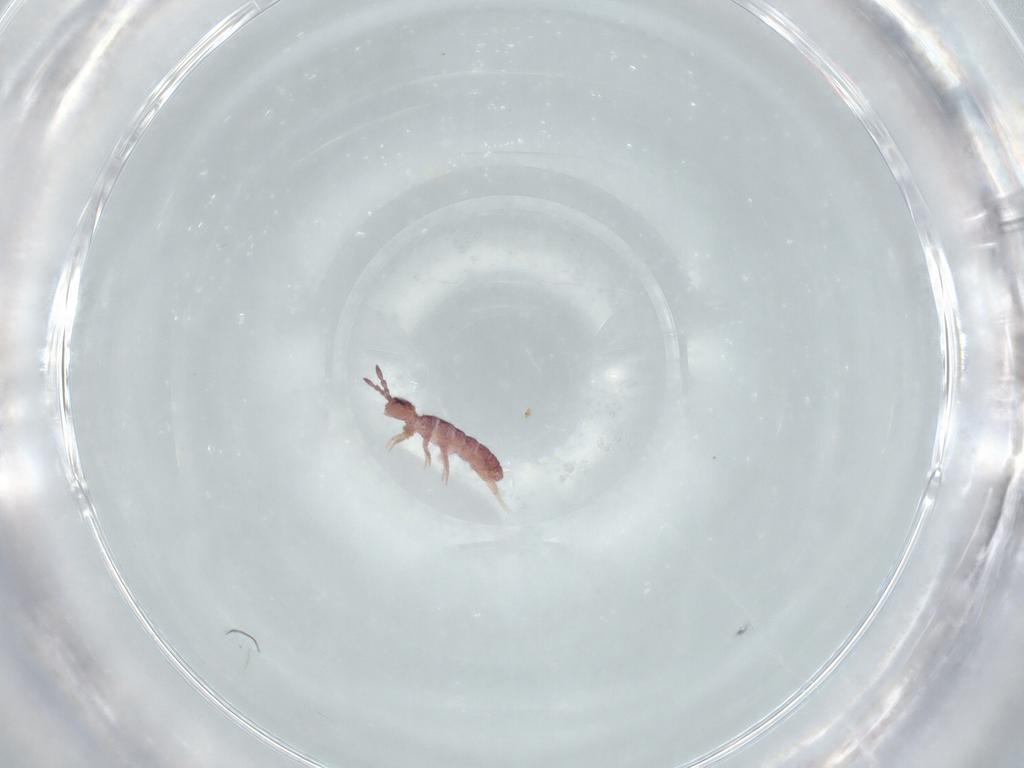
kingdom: Animalia
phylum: Arthropoda
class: Collembola
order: Entomobryomorpha
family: Isotomidae
